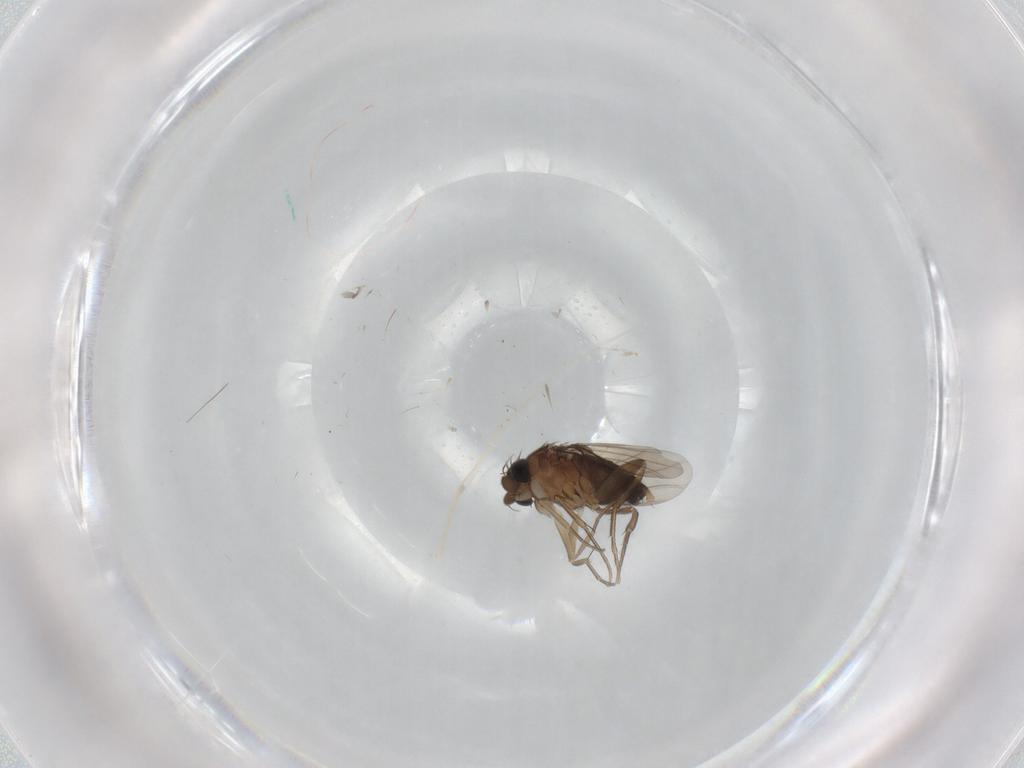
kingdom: Animalia
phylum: Arthropoda
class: Insecta
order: Diptera
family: Phoridae
